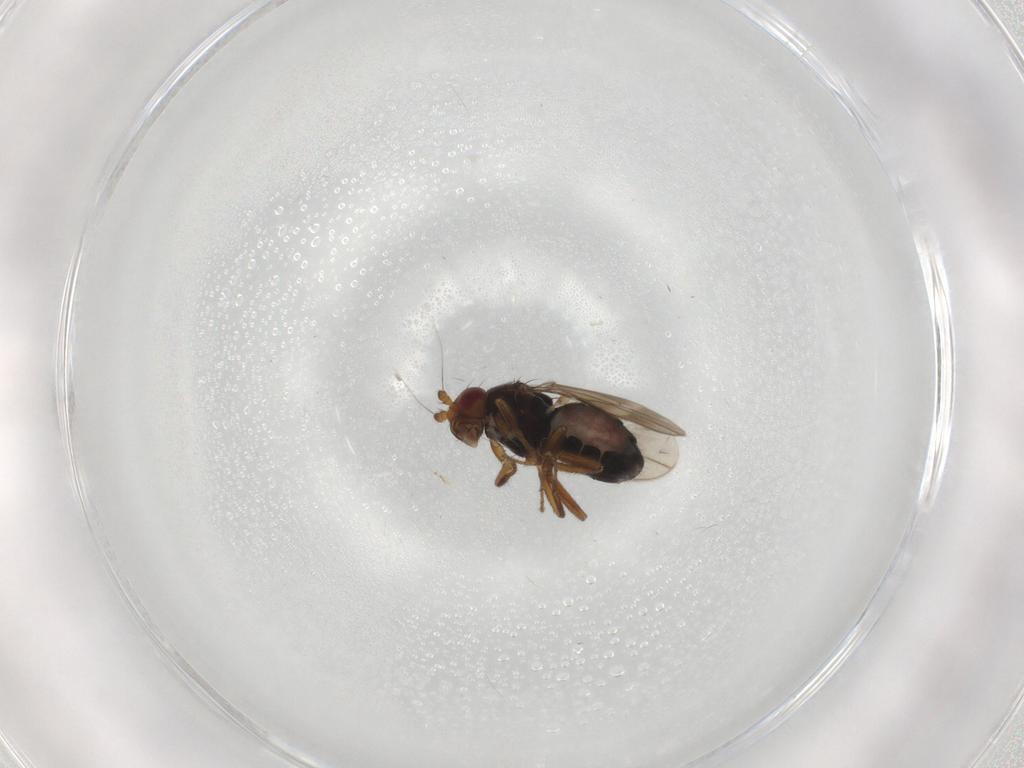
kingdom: Animalia
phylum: Arthropoda
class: Insecta
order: Diptera
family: Sphaeroceridae
